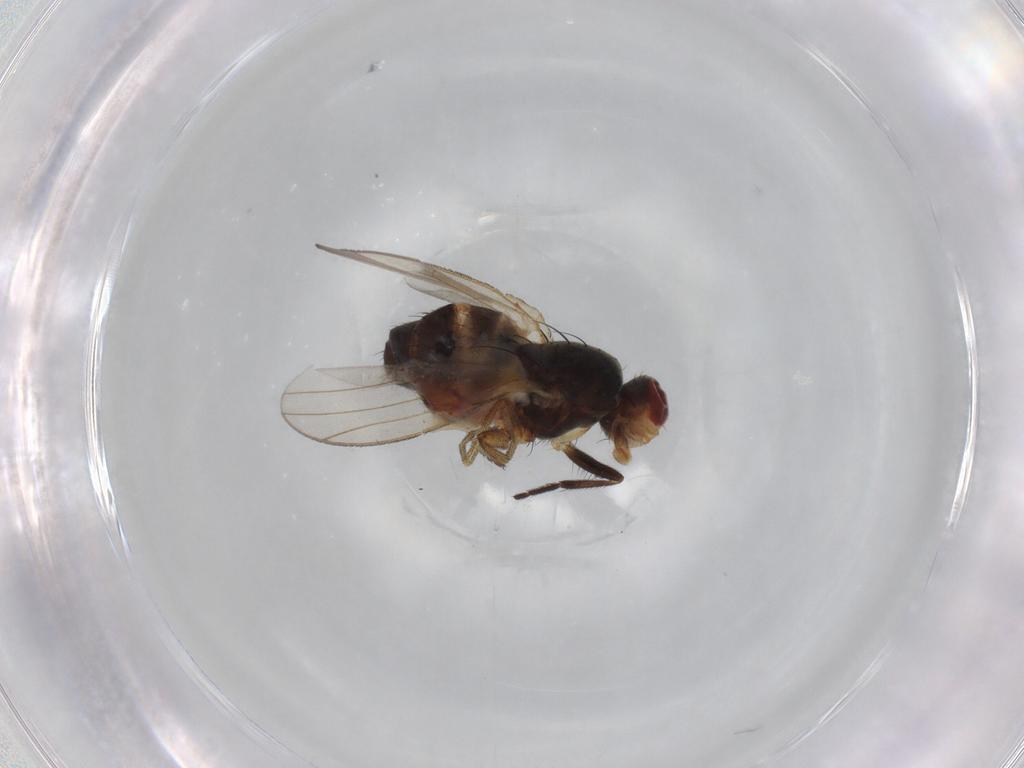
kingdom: Animalia
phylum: Arthropoda
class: Insecta
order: Diptera
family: Heleomyzidae
